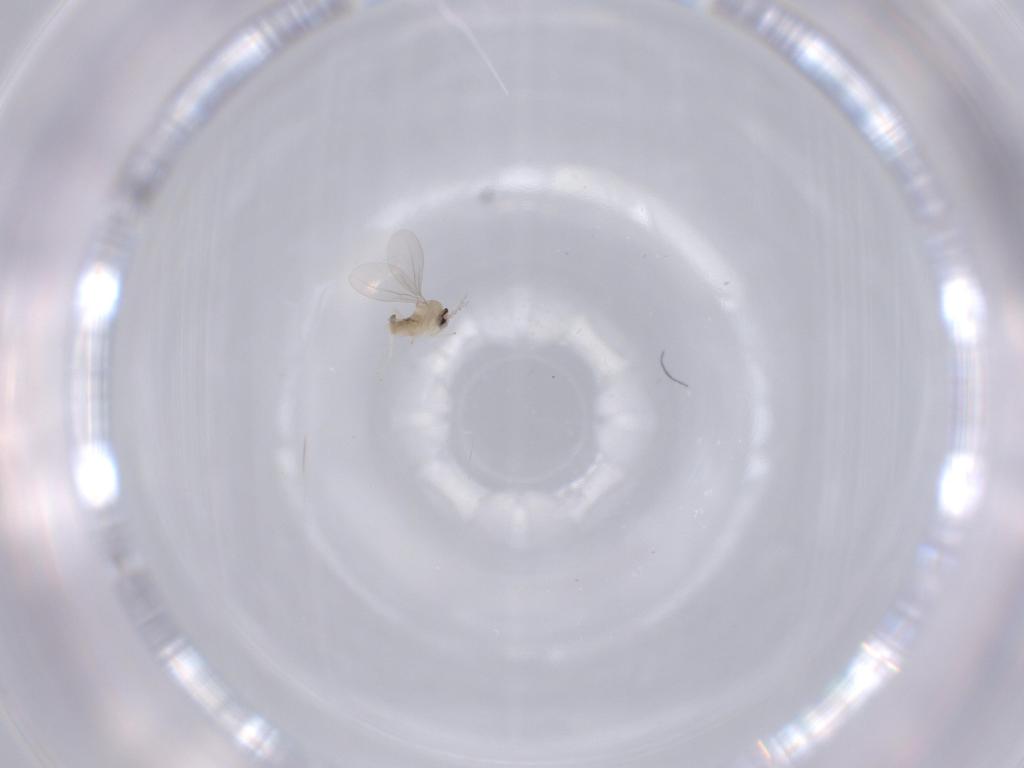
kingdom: Animalia
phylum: Arthropoda
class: Insecta
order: Diptera
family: Cecidomyiidae
